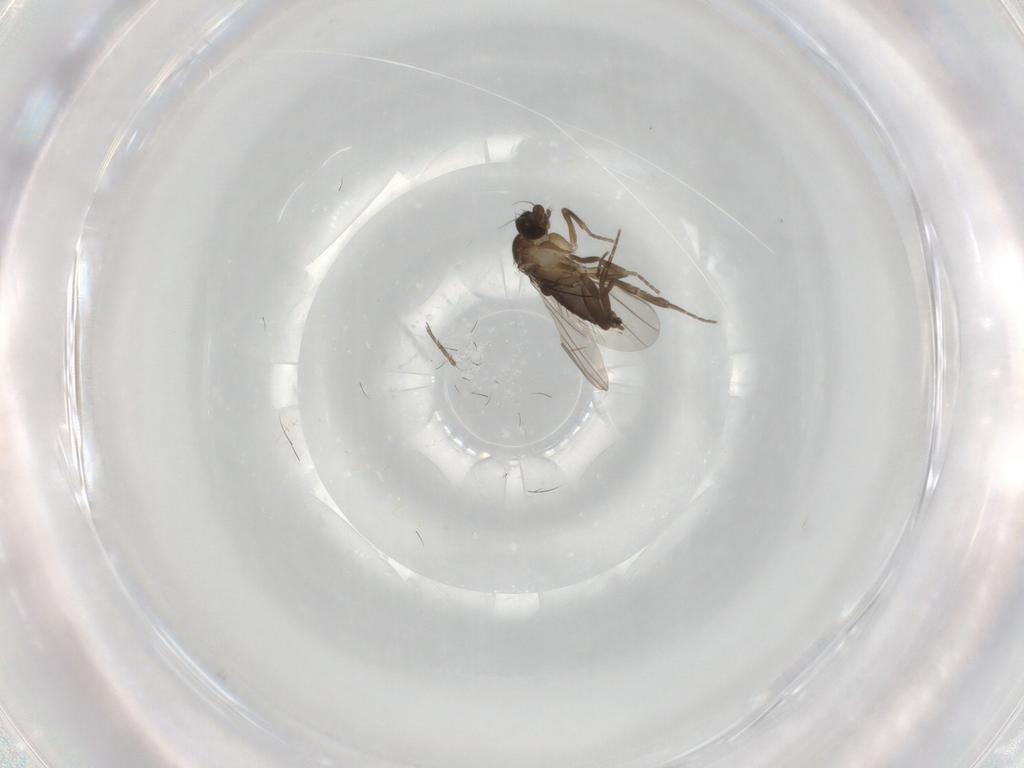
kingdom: Animalia
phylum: Arthropoda
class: Insecta
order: Diptera
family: Phoridae
